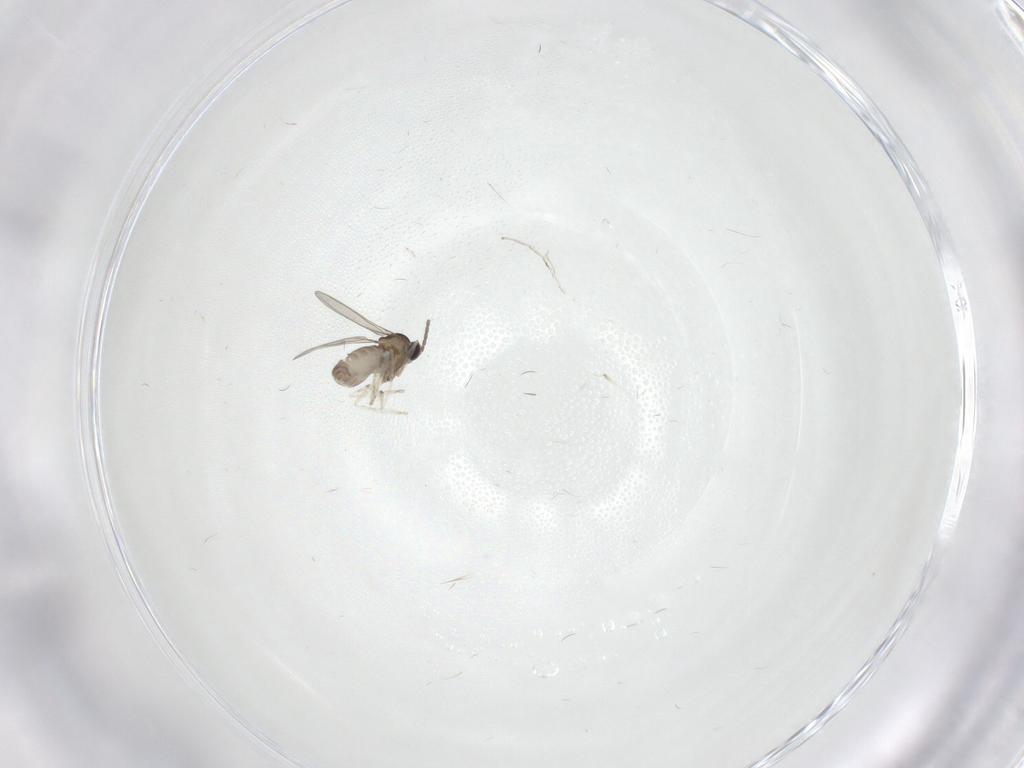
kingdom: Animalia
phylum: Arthropoda
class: Insecta
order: Diptera
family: Cecidomyiidae
